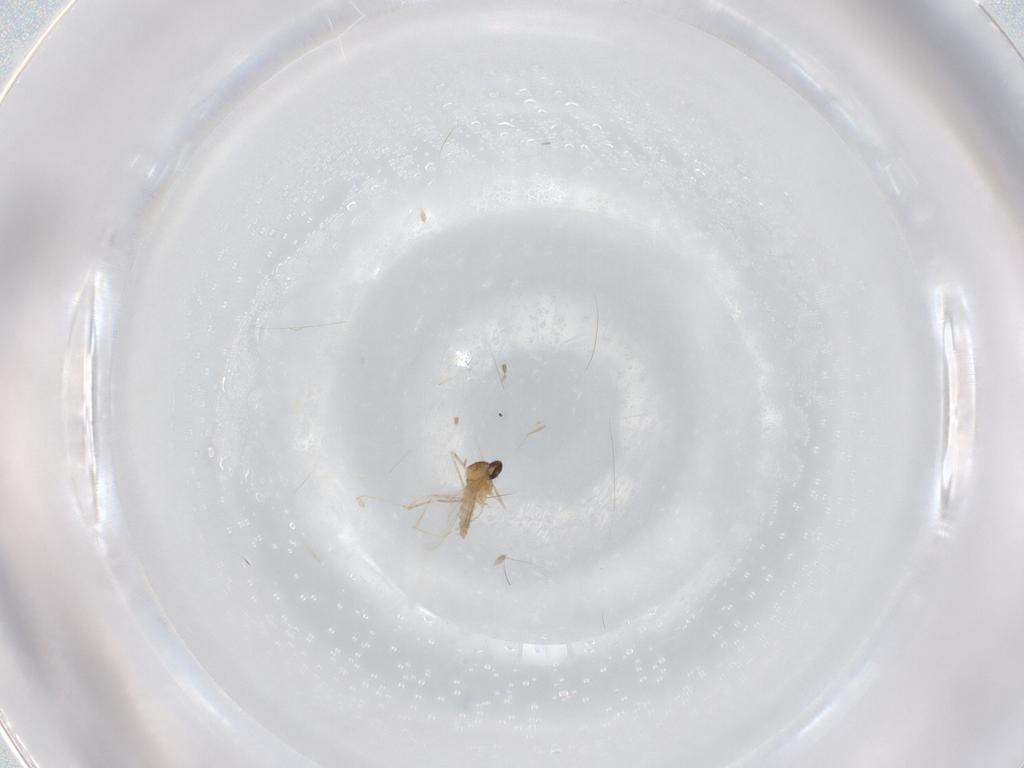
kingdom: Animalia
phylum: Arthropoda
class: Insecta
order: Diptera
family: Cecidomyiidae
